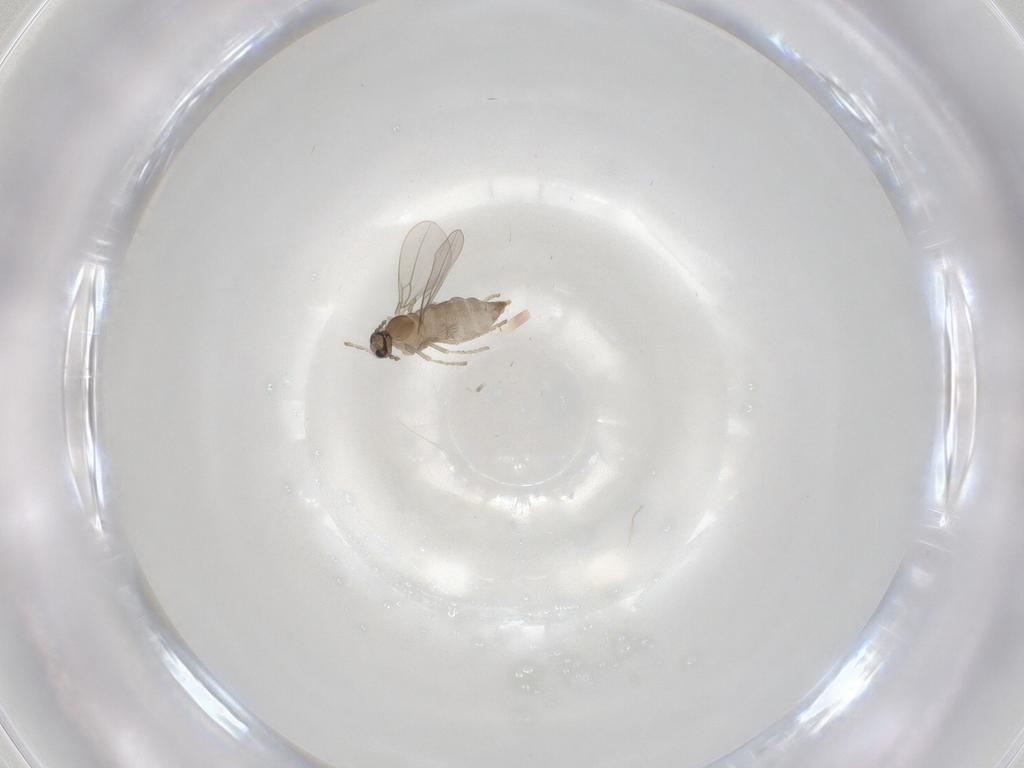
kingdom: Animalia
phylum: Arthropoda
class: Insecta
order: Diptera
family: Cecidomyiidae
